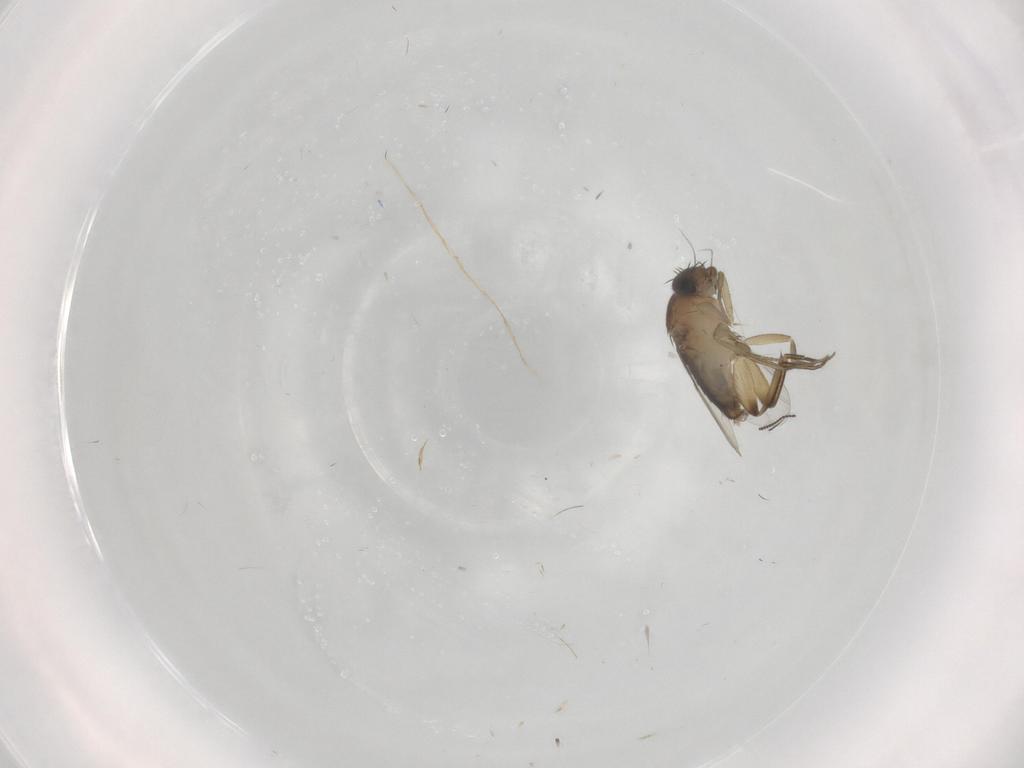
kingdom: Animalia
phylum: Arthropoda
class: Insecta
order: Diptera
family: Phoridae
